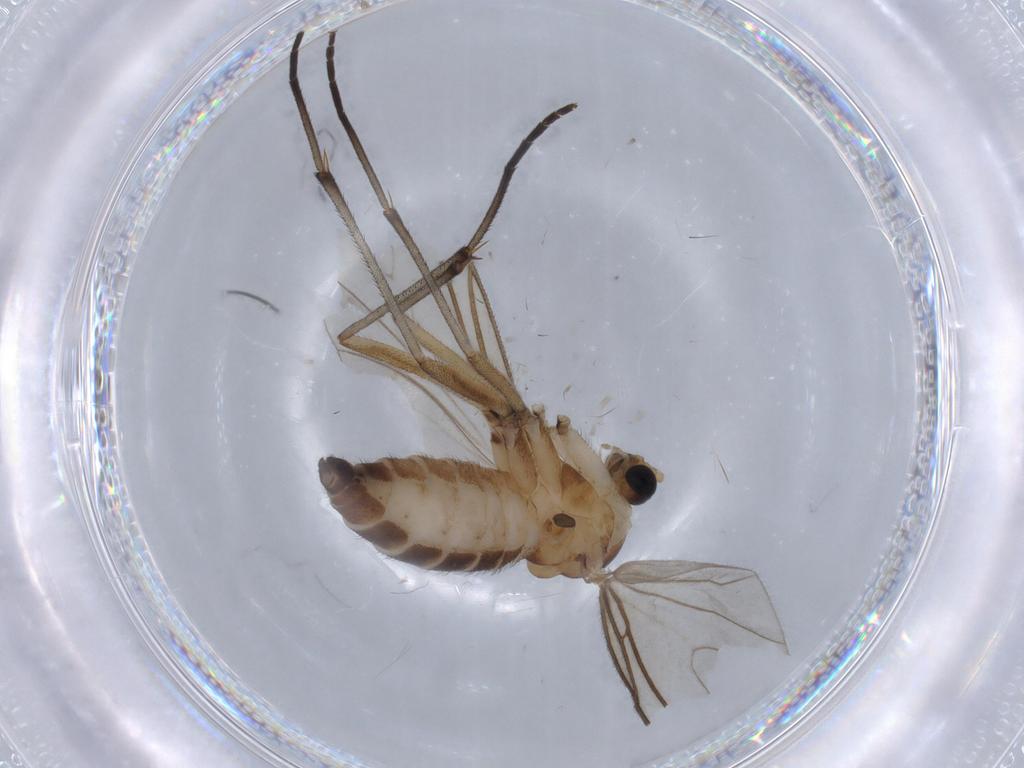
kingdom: Animalia
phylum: Arthropoda
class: Insecta
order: Diptera
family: Sciaridae
